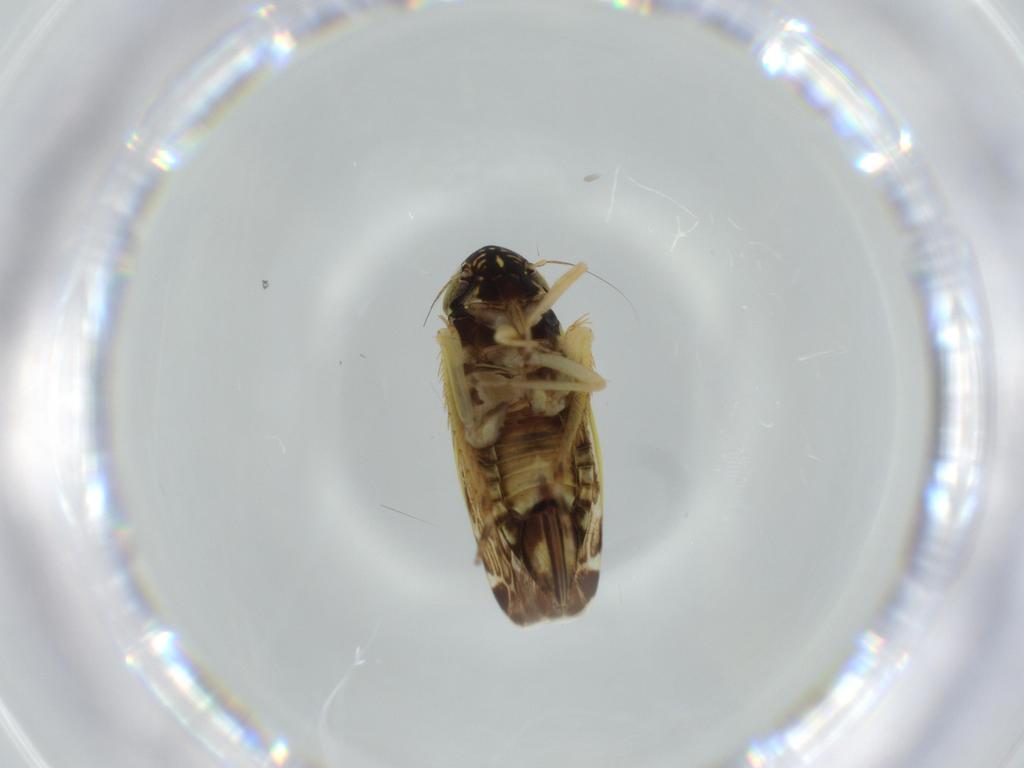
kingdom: Animalia
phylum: Arthropoda
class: Insecta
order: Hemiptera
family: Cicadellidae
